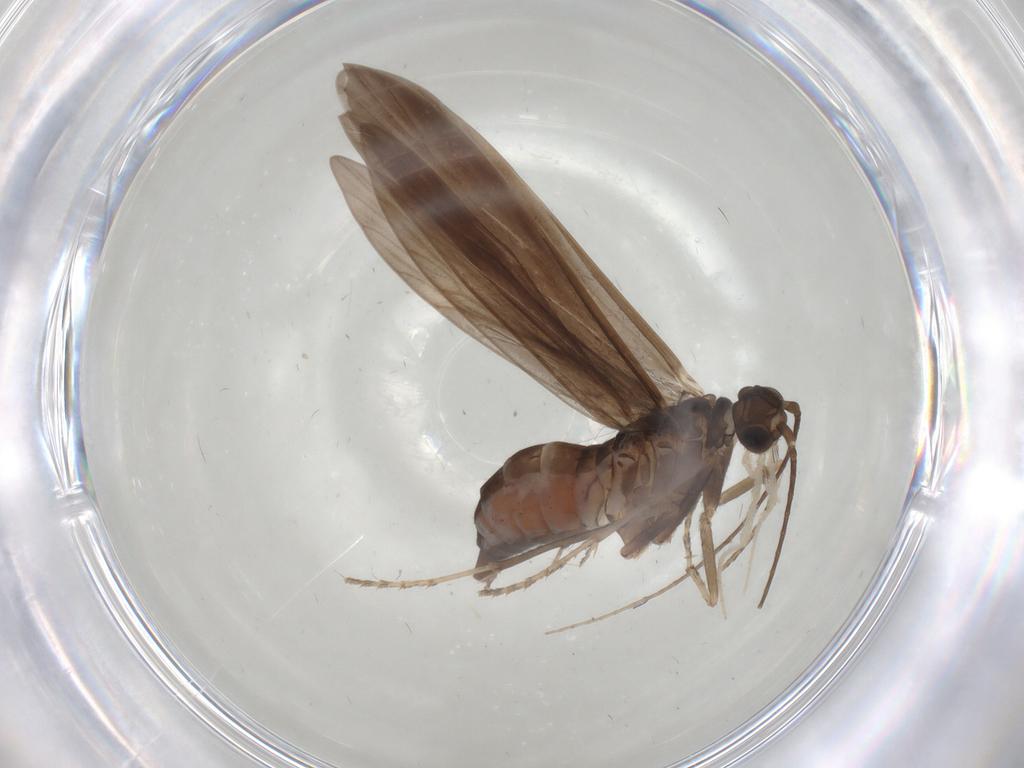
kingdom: Animalia
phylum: Arthropoda
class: Insecta
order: Trichoptera
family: Xiphocentronidae
